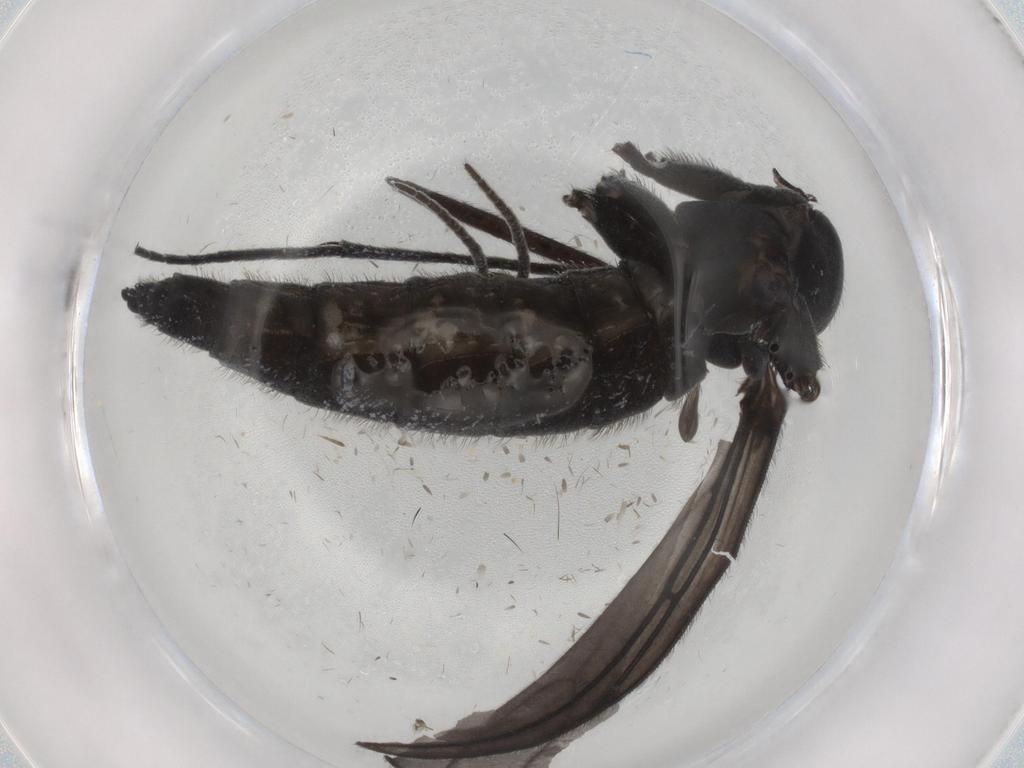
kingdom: Animalia
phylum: Arthropoda
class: Insecta
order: Diptera
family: Sciaridae
